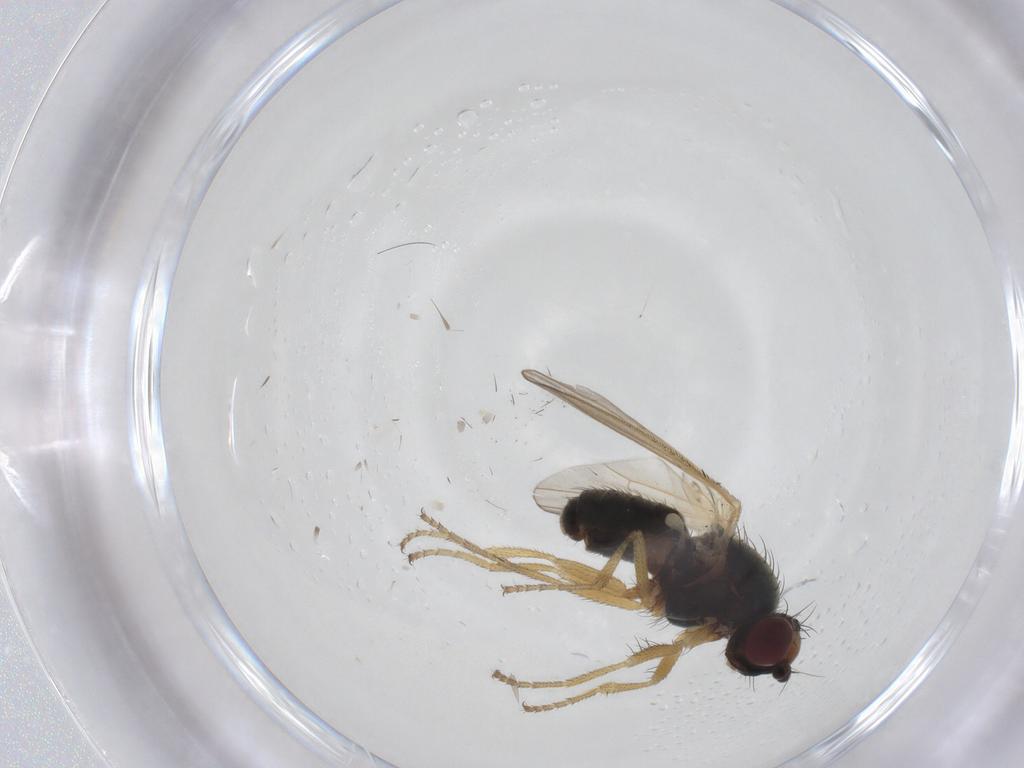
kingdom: Animalia
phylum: Arthropoda
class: Insecta
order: Diptera
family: Heleomyzidae
